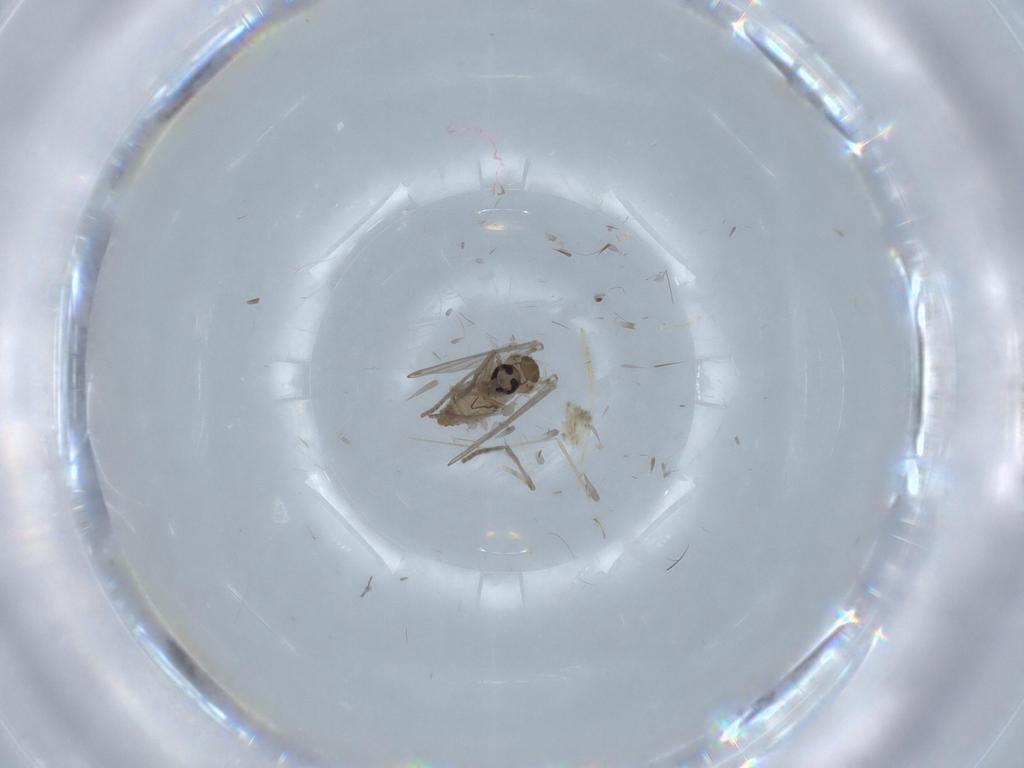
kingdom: Animalia
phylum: Arthropoda
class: Insecta
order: Diptera
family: Psychodidae
